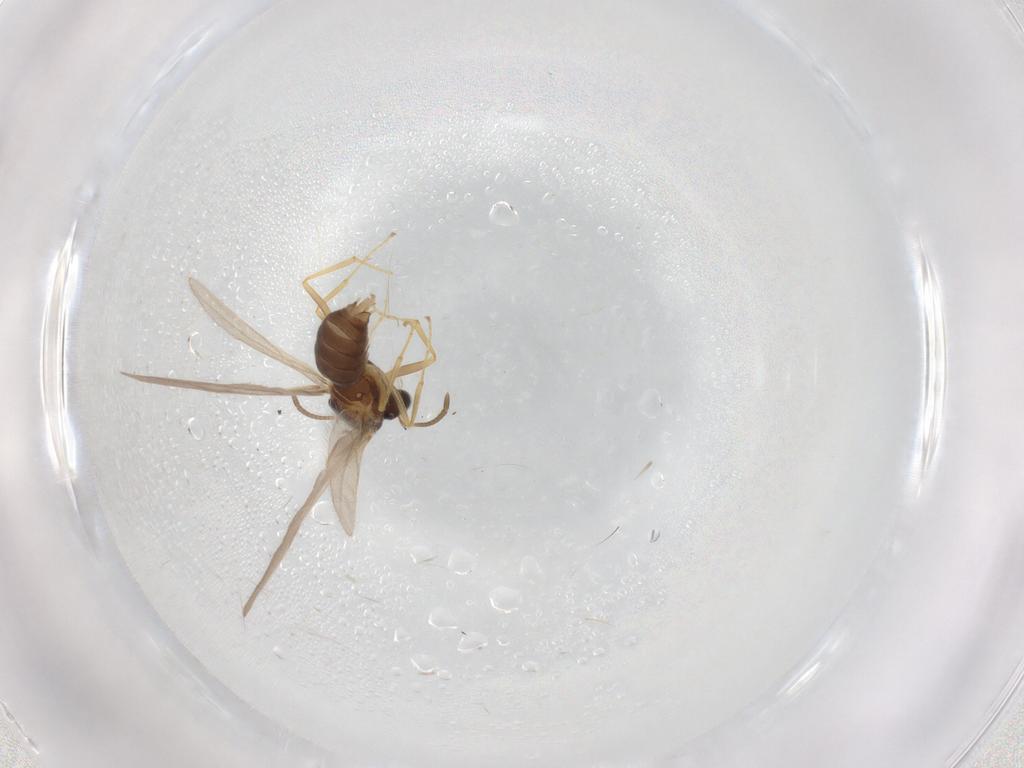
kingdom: Animalia
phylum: Arthropoda
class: Insecta
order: Hymenoptera
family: Formicidae
